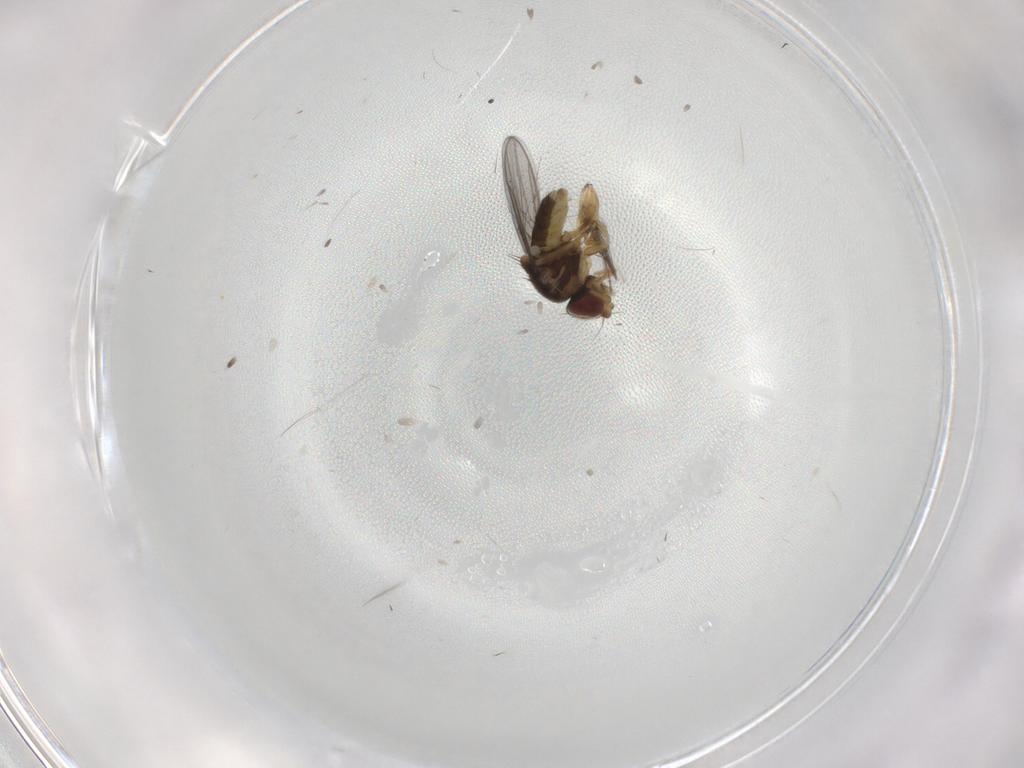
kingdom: Animalia
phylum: Arthropoda
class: Insecta
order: Diptera
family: Chloropidae
